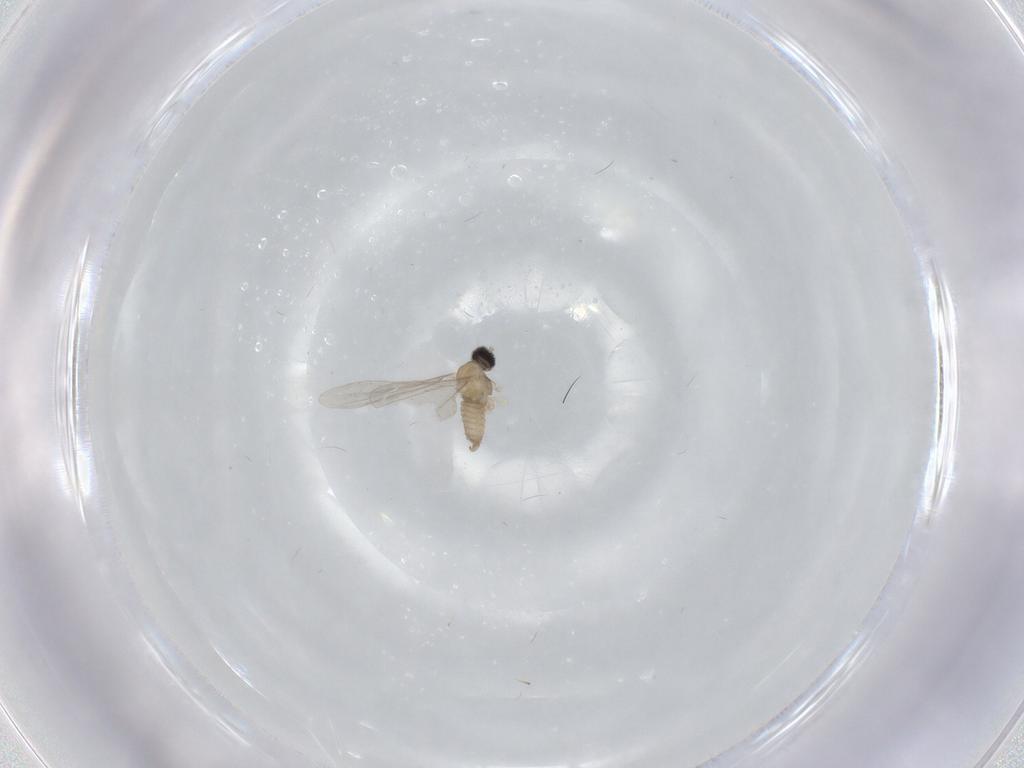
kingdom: Animalia
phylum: Arthropoda
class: Insecta
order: Diptera
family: Cecidomyiidae
